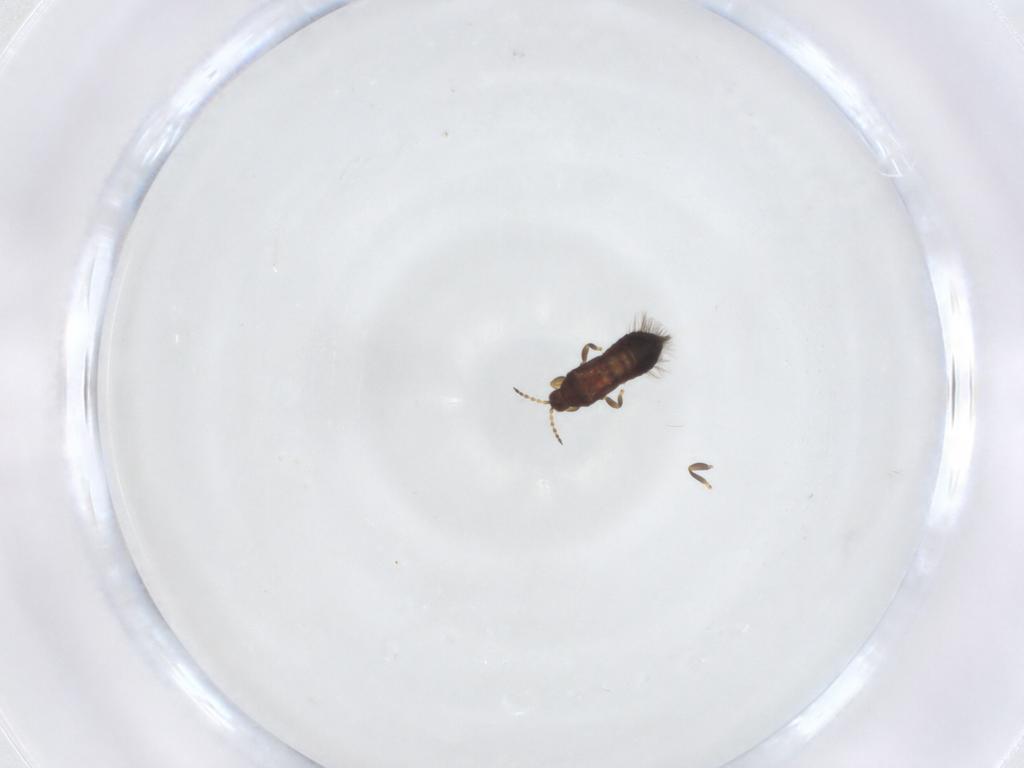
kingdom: Animalia
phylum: Arthropoda
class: Insecta
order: Thysanoptera
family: Phlaeothripidae
